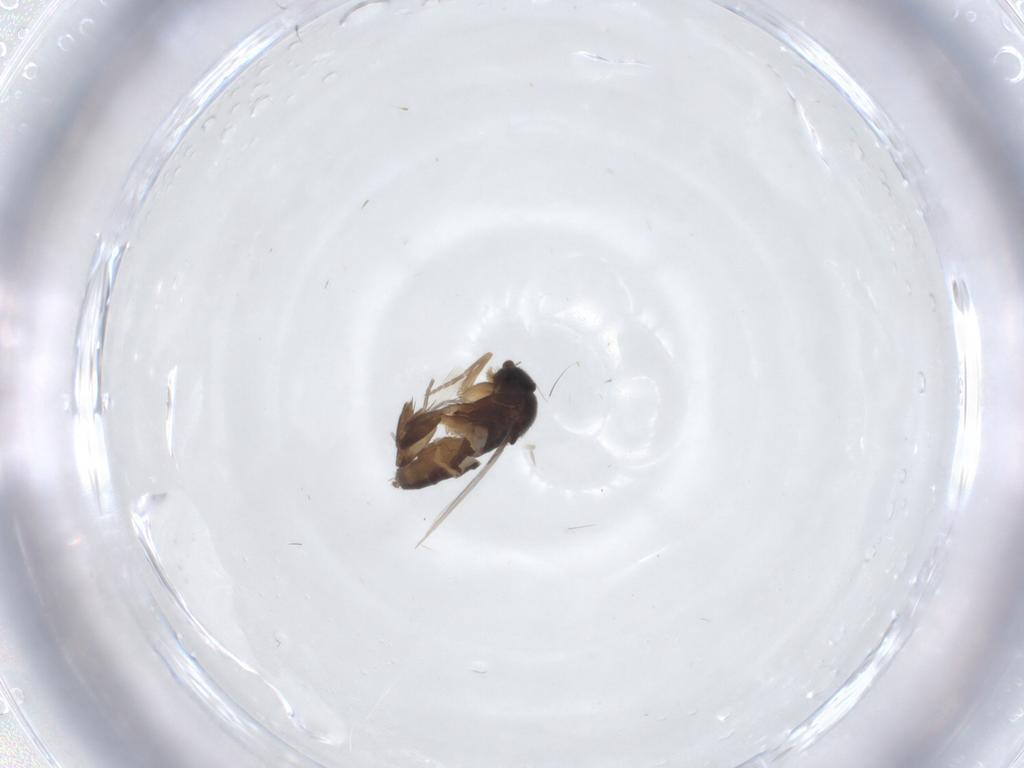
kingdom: Animalia
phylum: Arthropoda
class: Insecta
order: Diptera
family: Phoridae
